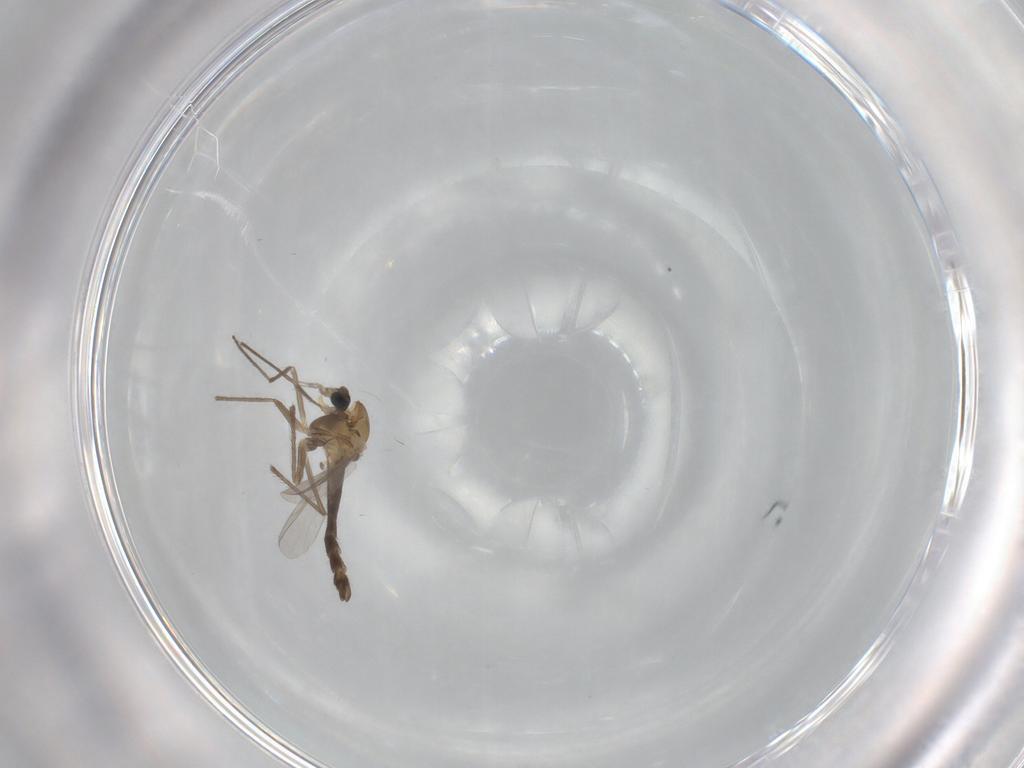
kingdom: Animalia
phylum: Arthropoda
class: Insecta
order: Diptera
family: Chironomidae
